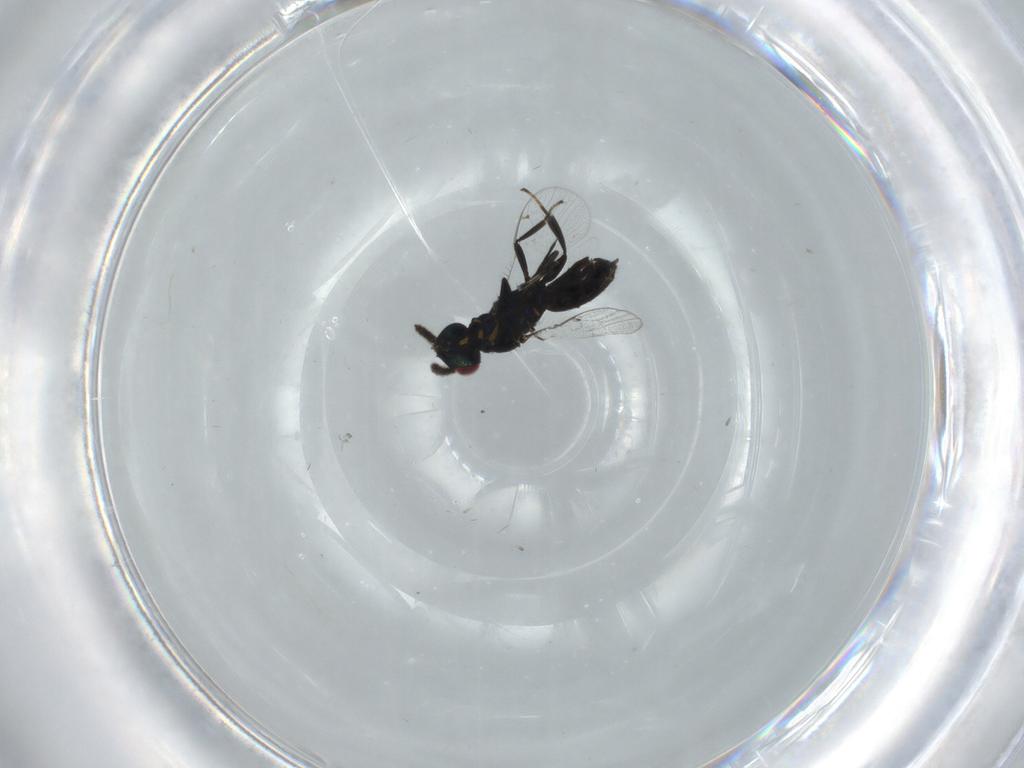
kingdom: Animalia
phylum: Arthropoda
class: Insecta
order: Hymenoptera
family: Pteromalidae
